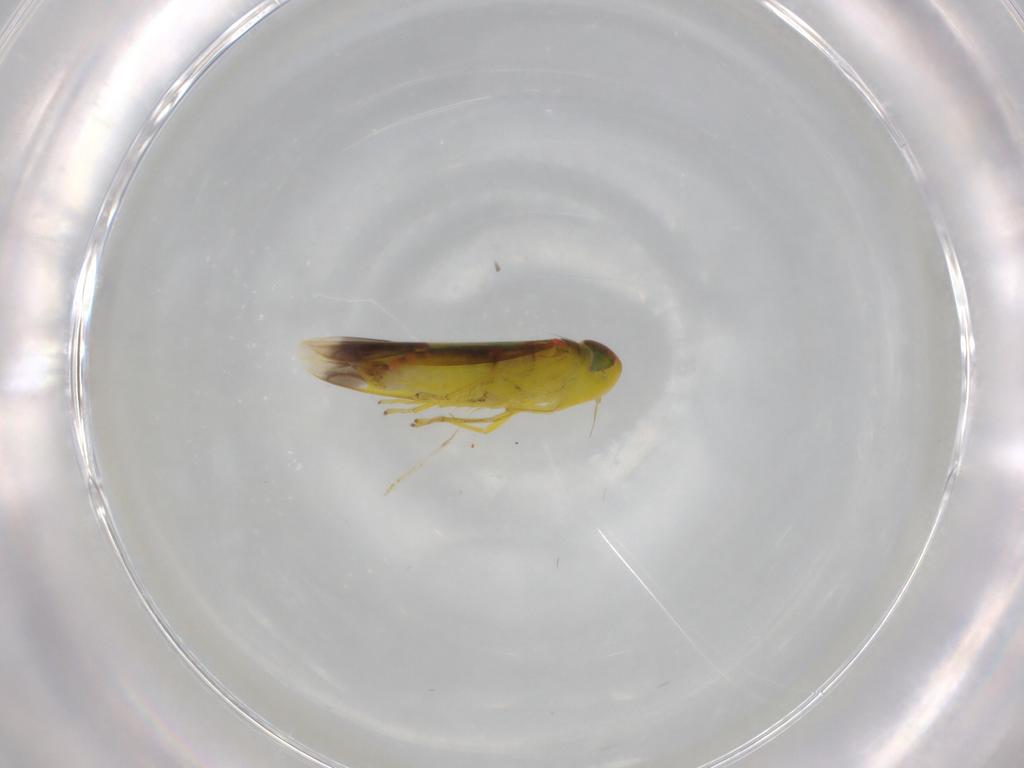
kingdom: Animalia
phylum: Arthropoda
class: Insecta
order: Hemiptera
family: Cicadellidae
